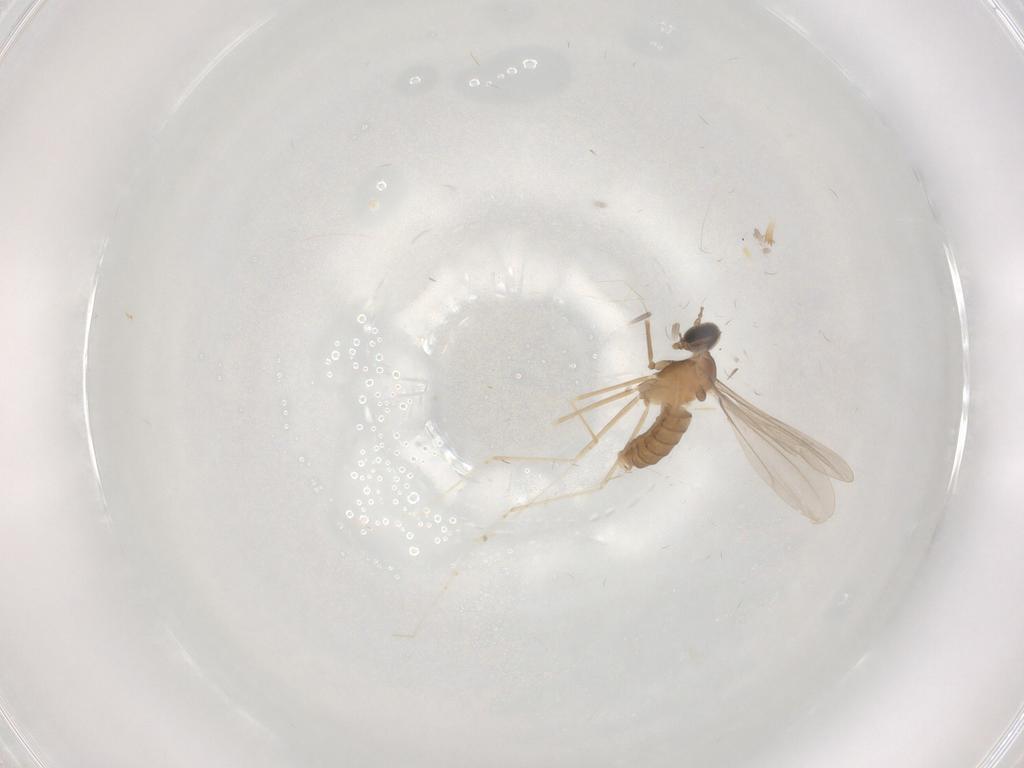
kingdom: Animalia
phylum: Arthropoda
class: Insecta
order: Diptera
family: Cecidomyiidae
